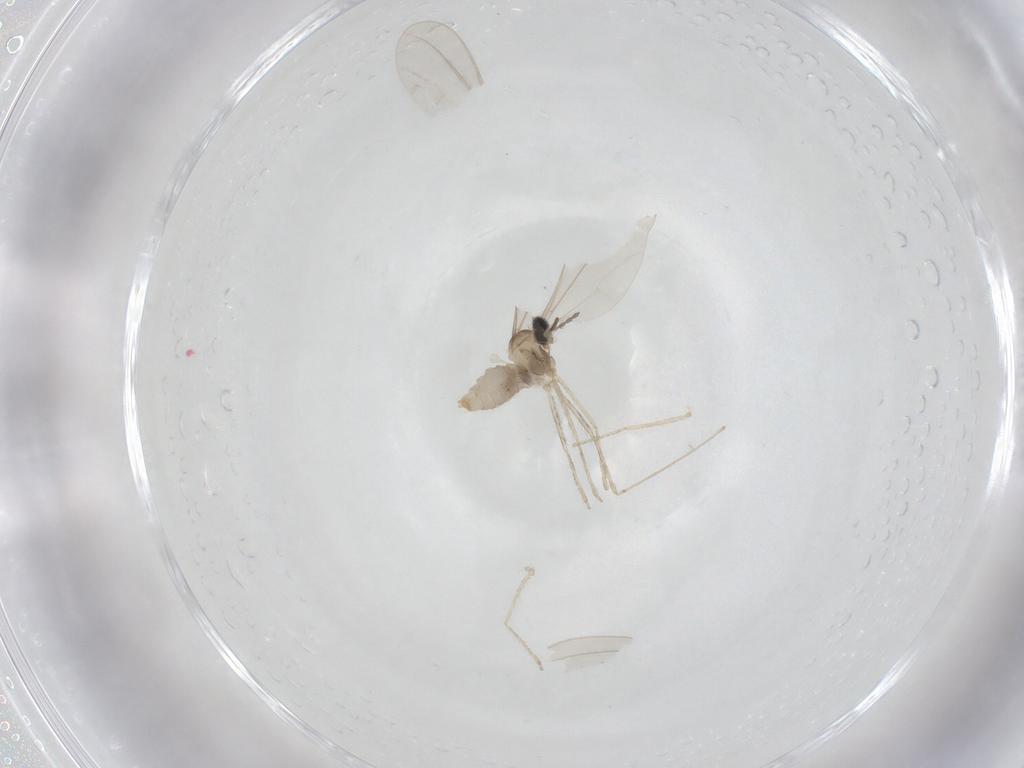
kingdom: Animalia
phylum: Arthropoda
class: Insecta
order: Diptera
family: Cecidomyiidae
